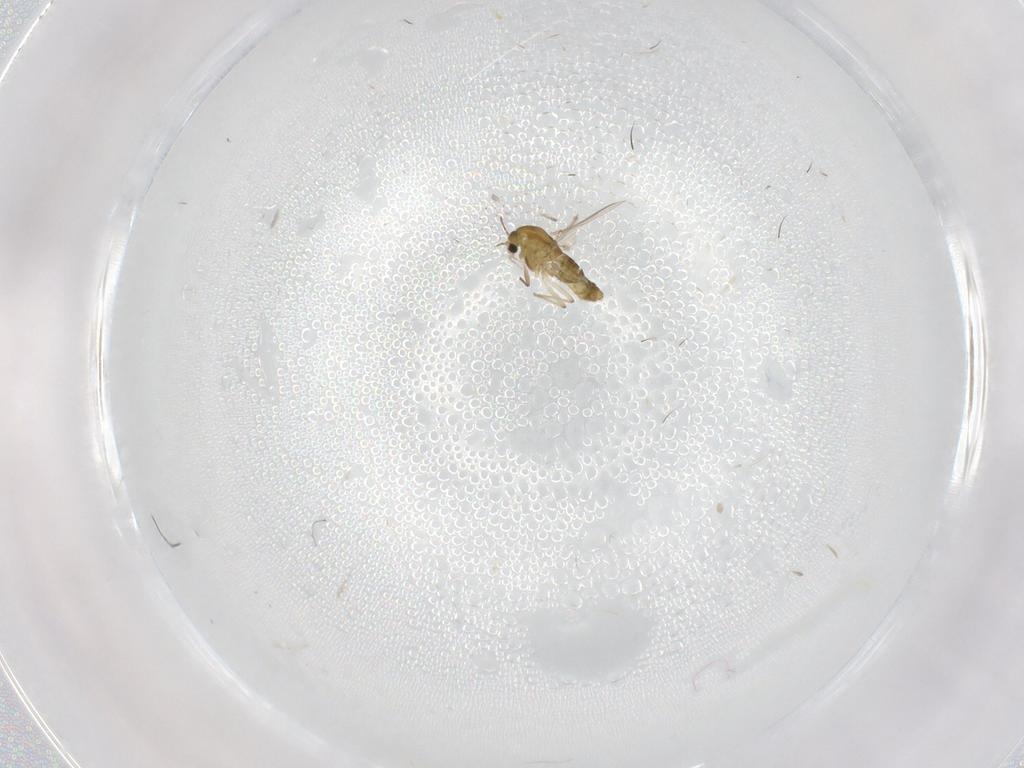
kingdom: Animalia
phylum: Arthropoda
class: Insecta
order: Diptera
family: Chironomidae
